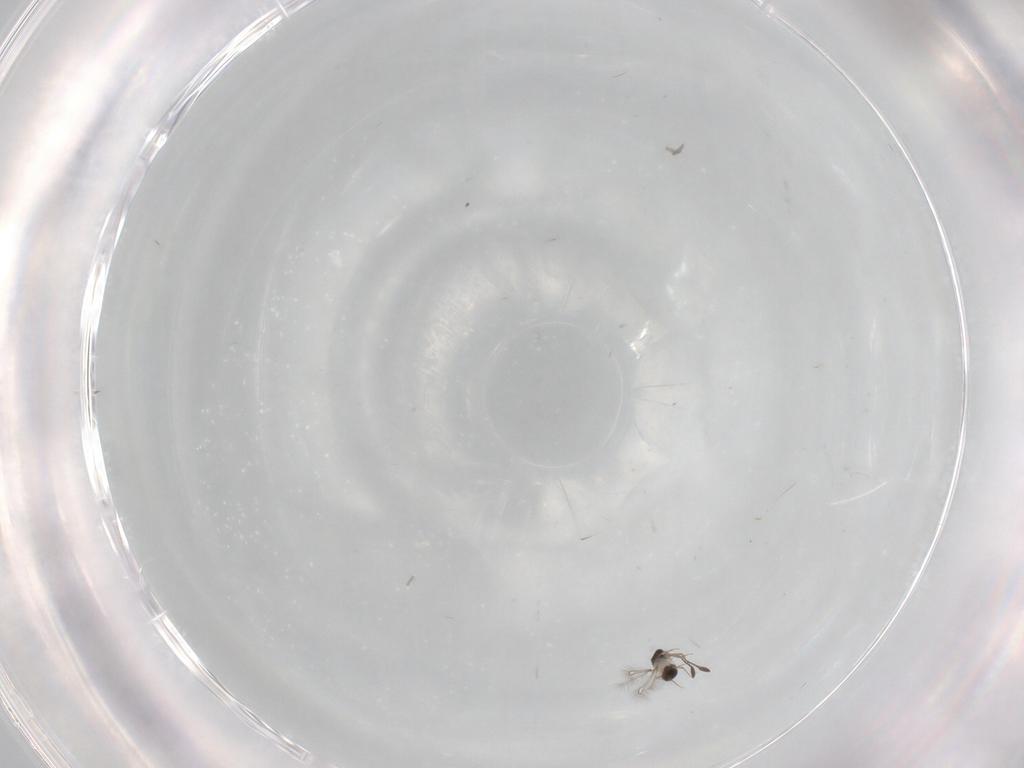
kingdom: Animalia
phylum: Arthropoda
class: Insecta
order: Hymenoptera
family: Mymaridae
